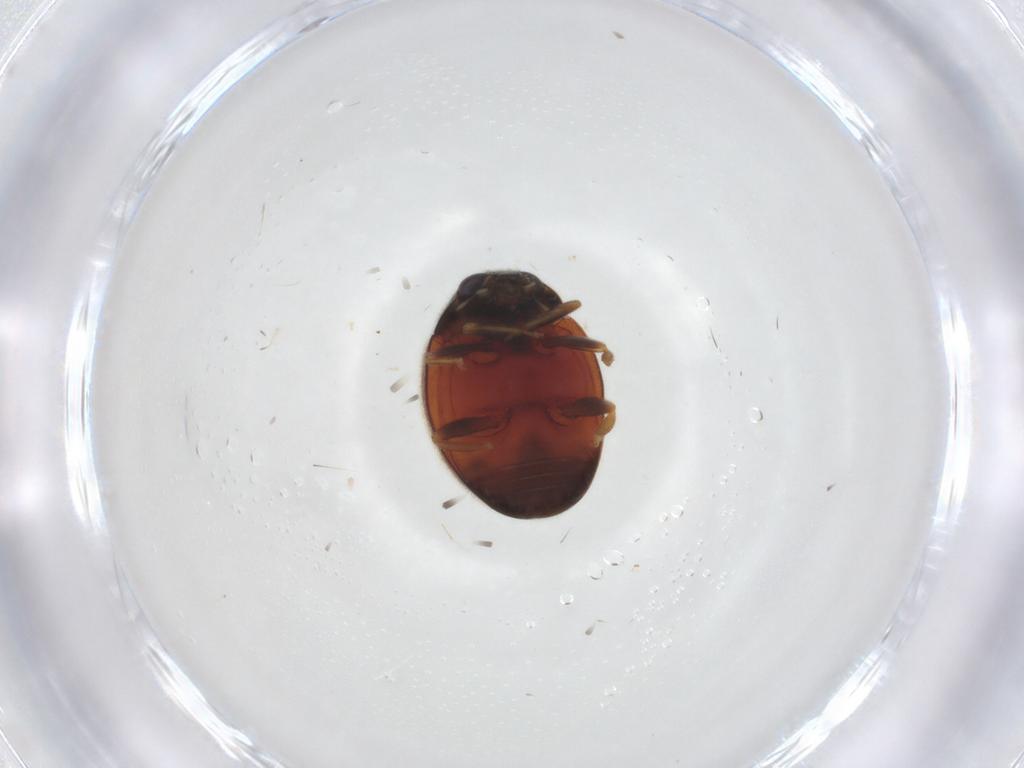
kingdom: Animalia
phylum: Arthropoda
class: Insecta
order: Coleoptera
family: Coccinellidae
